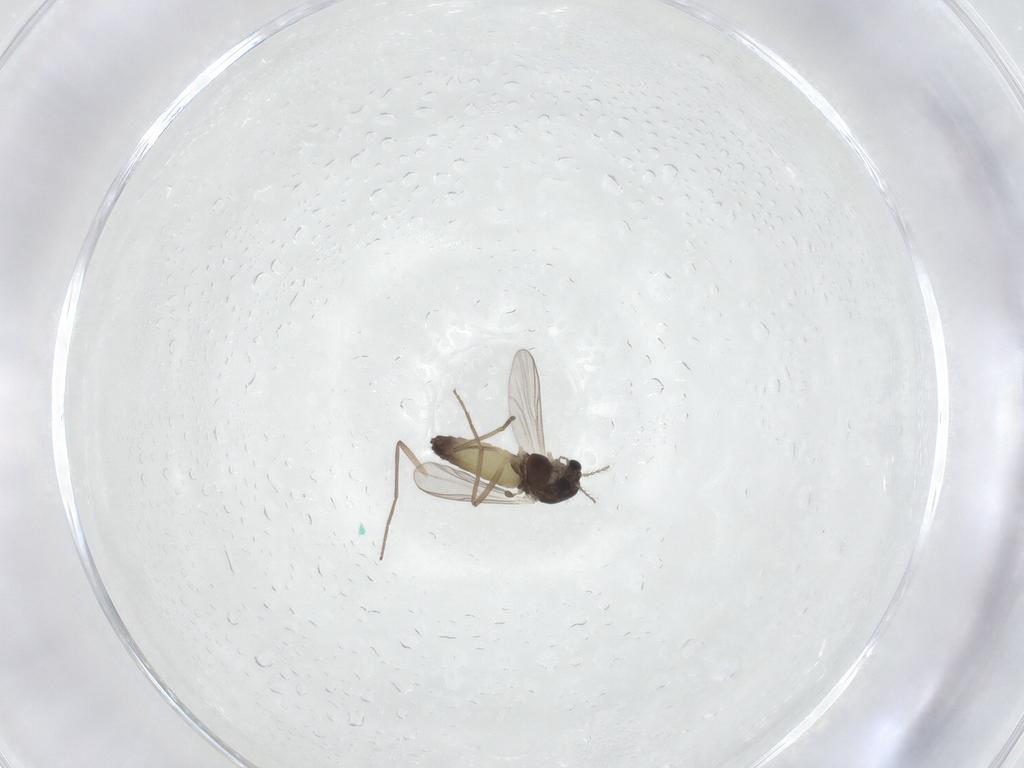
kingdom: Animalia
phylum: Arthropoda
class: Insecta
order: Diptera
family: Chironomidae
